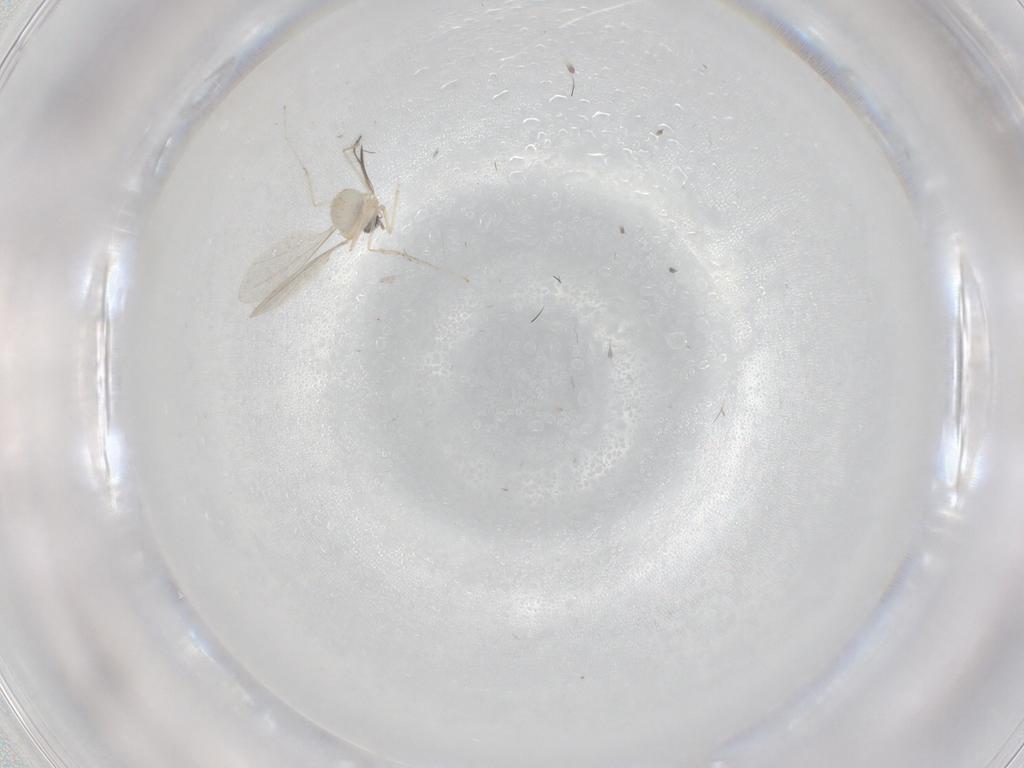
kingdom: Animalia
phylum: Arthropoda
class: Insecta
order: Diptera
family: Cecidomyiidae
